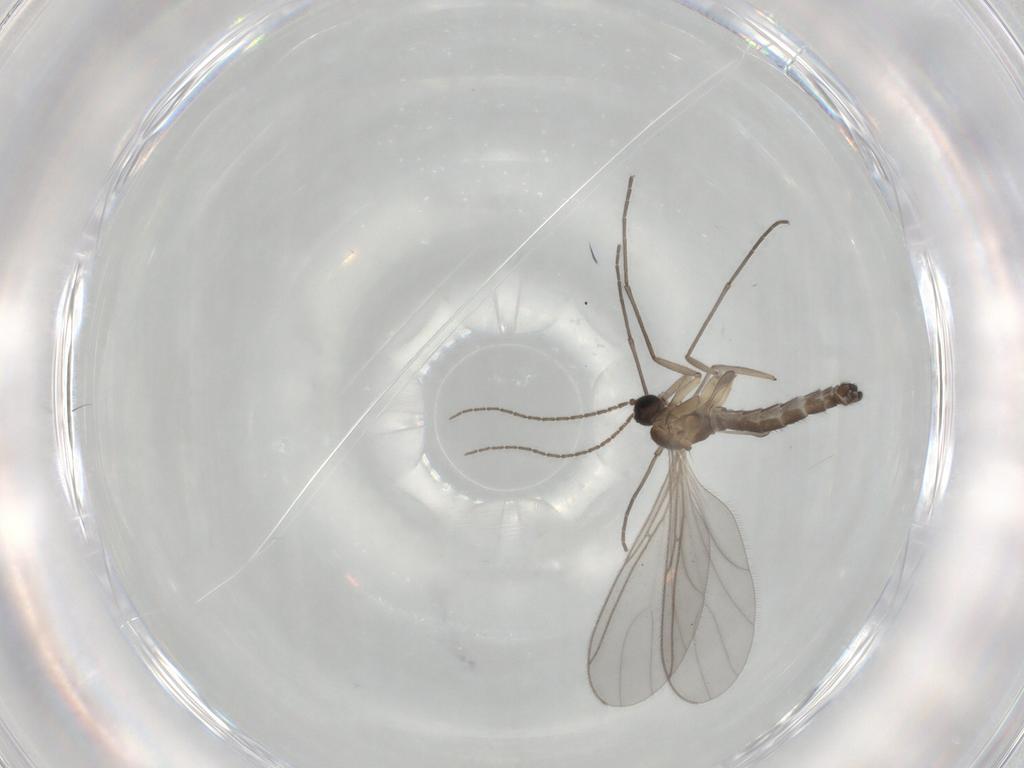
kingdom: Animalia
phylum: Arthropoda
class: Insecta
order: Diptera
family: Sciaridae
